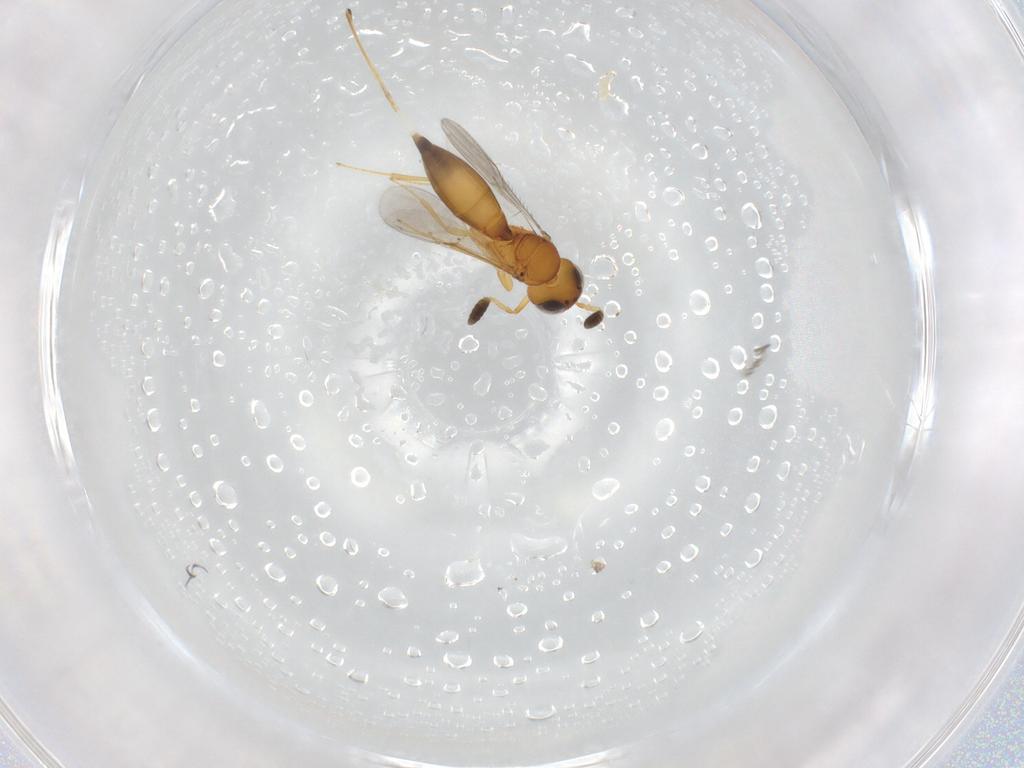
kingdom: Animalia
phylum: Arthropoda
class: Insecta
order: Hymenoptera
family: Scelionidae
